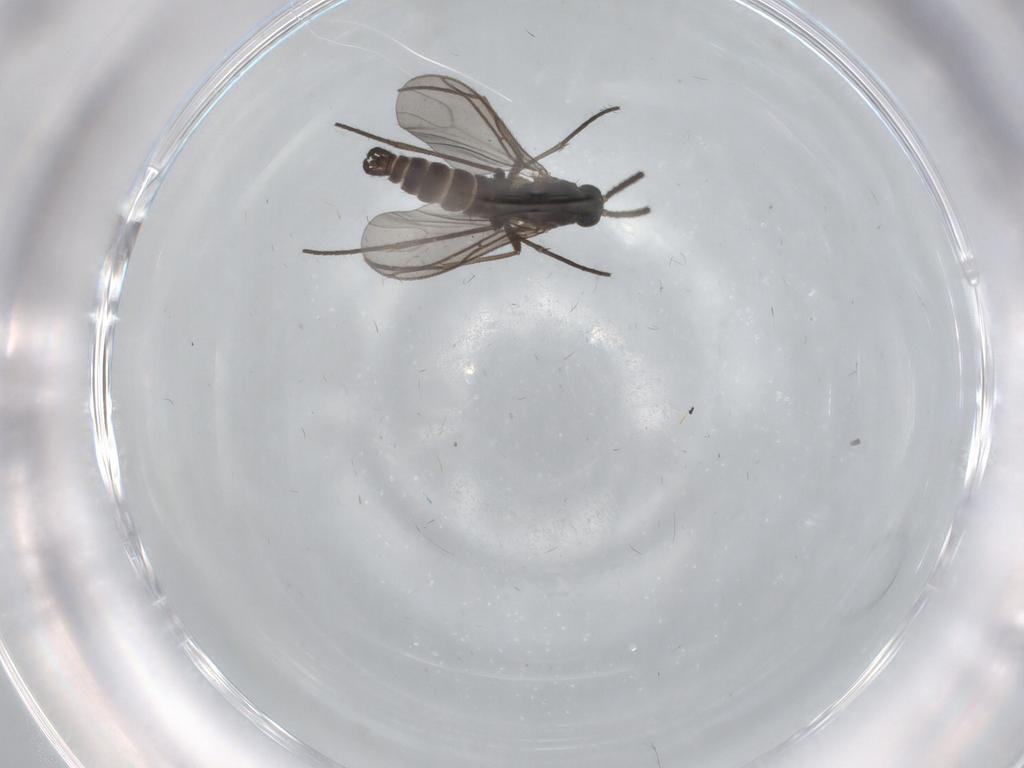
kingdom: Animalia
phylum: Arthropoda
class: Insecta
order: Diptera
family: Sciaridae
